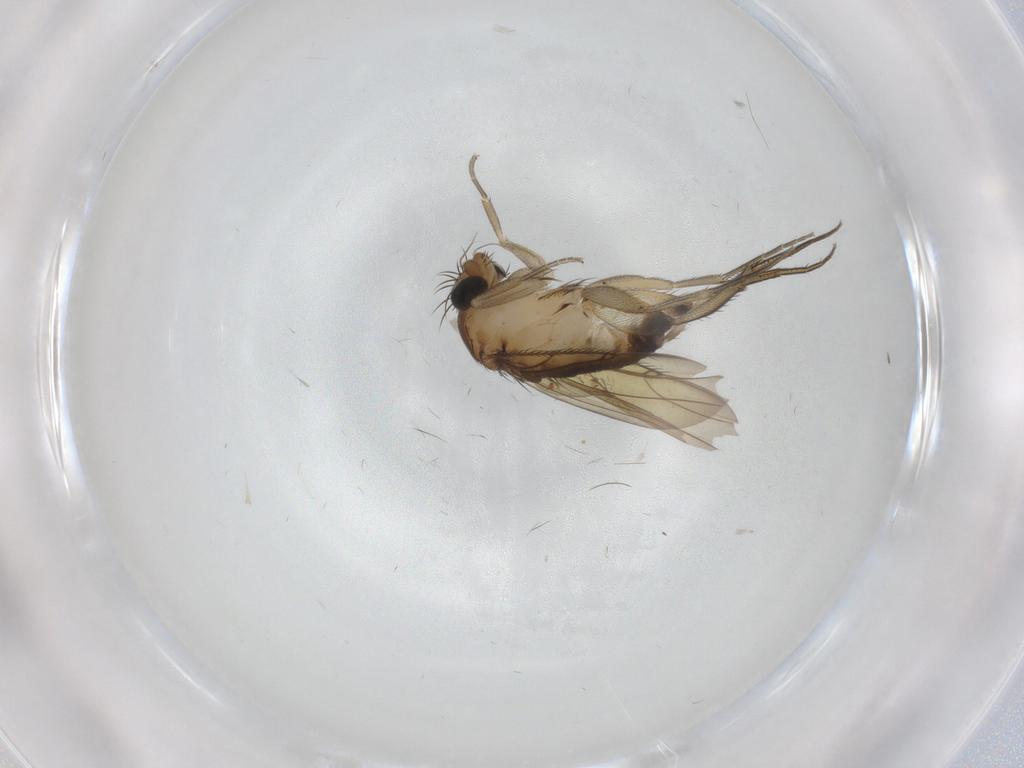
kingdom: Animalia
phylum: Arthropoda
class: Insecta
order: Diptera
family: Phoridae
